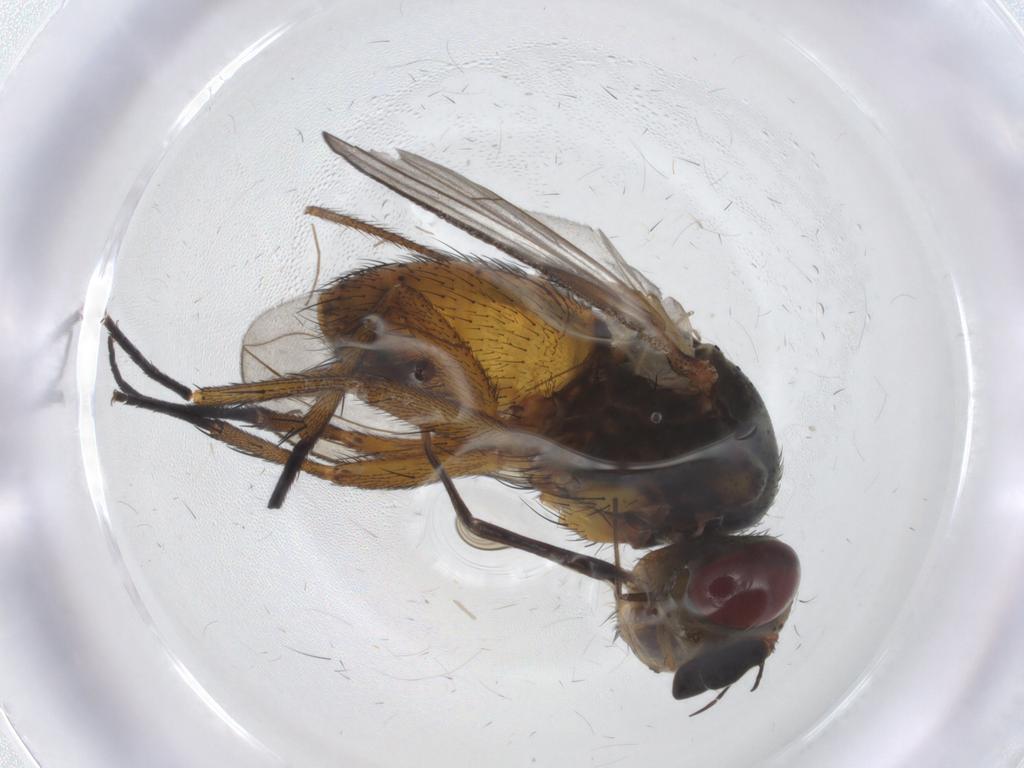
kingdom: Animalia
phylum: Arthropoda
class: Insecta
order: Diptera
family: Tachinidae
